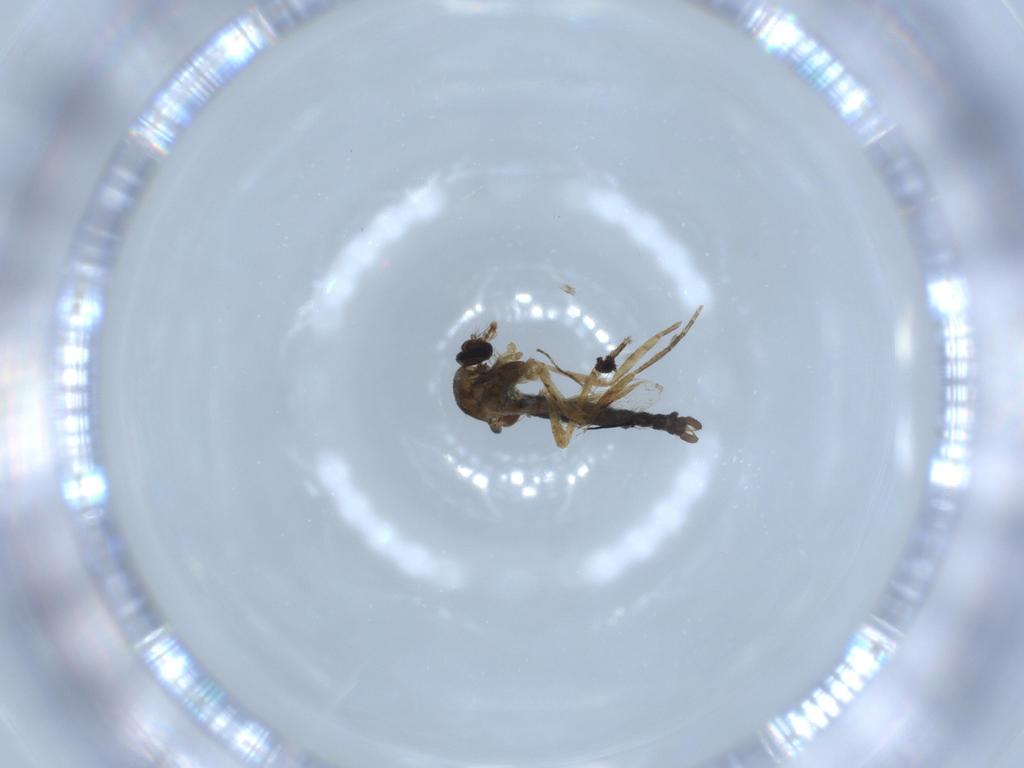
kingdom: Animalia
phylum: Arthropoda
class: Insecta
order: Diptera
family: Ceratopogonidae
